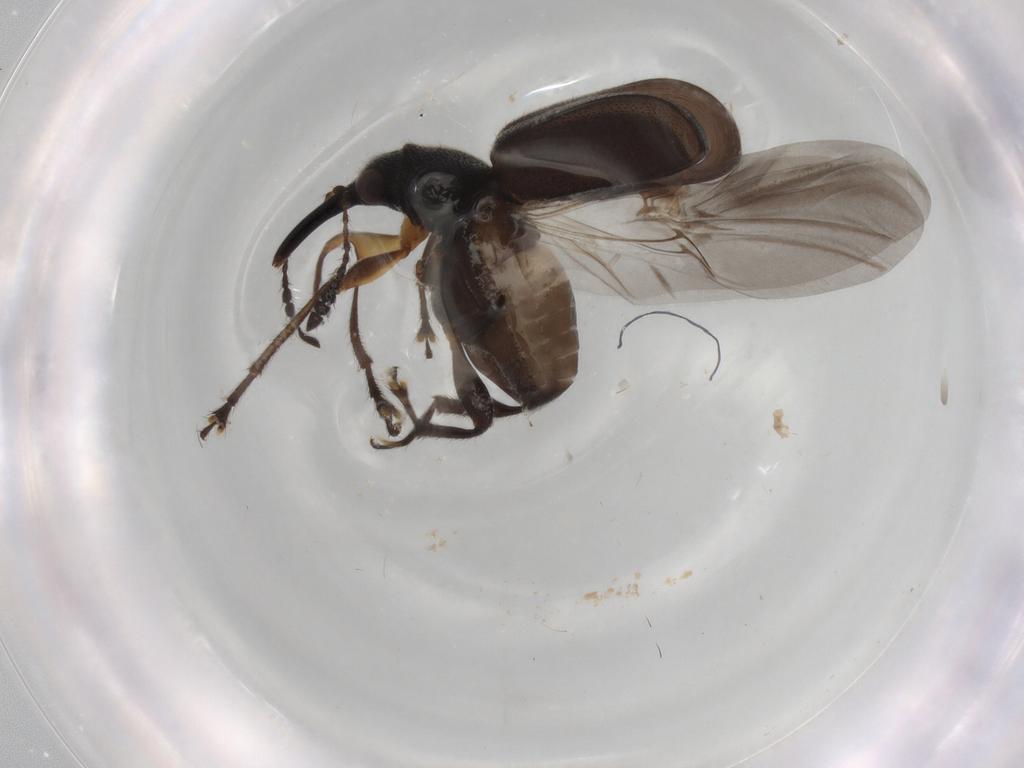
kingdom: Animalia
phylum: Arthropoda
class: Insecta
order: Coleoptera
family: Attelabidae
